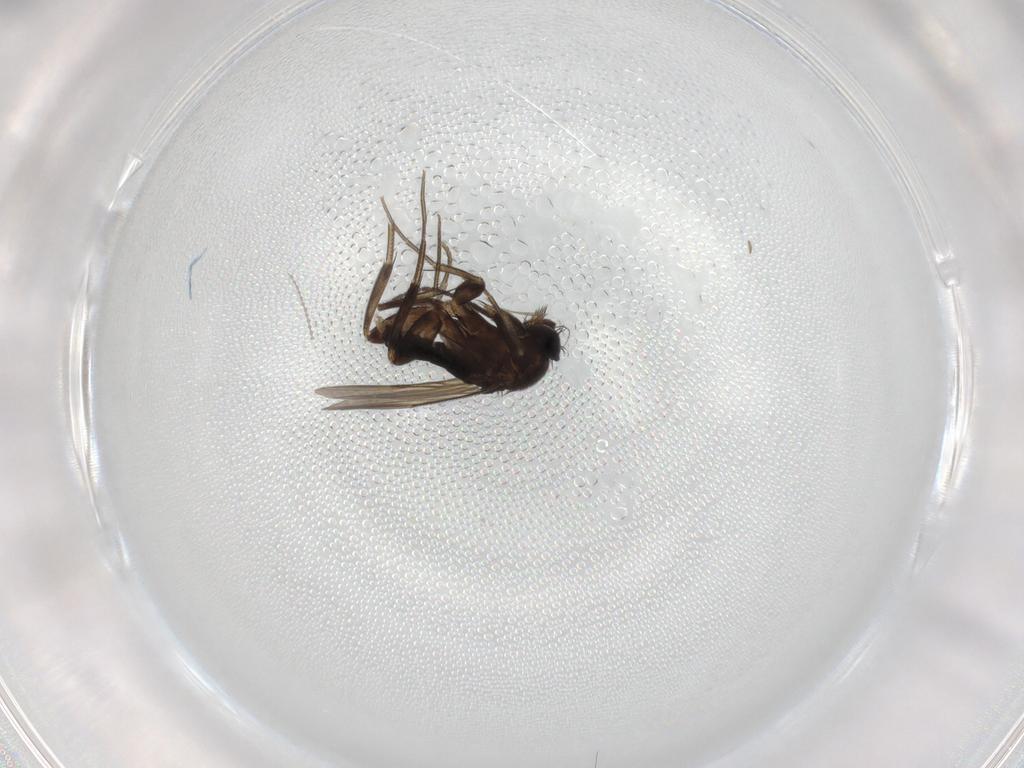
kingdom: Animalia
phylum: Arthropoda
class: Insecta
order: Diptera
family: Phoridae
